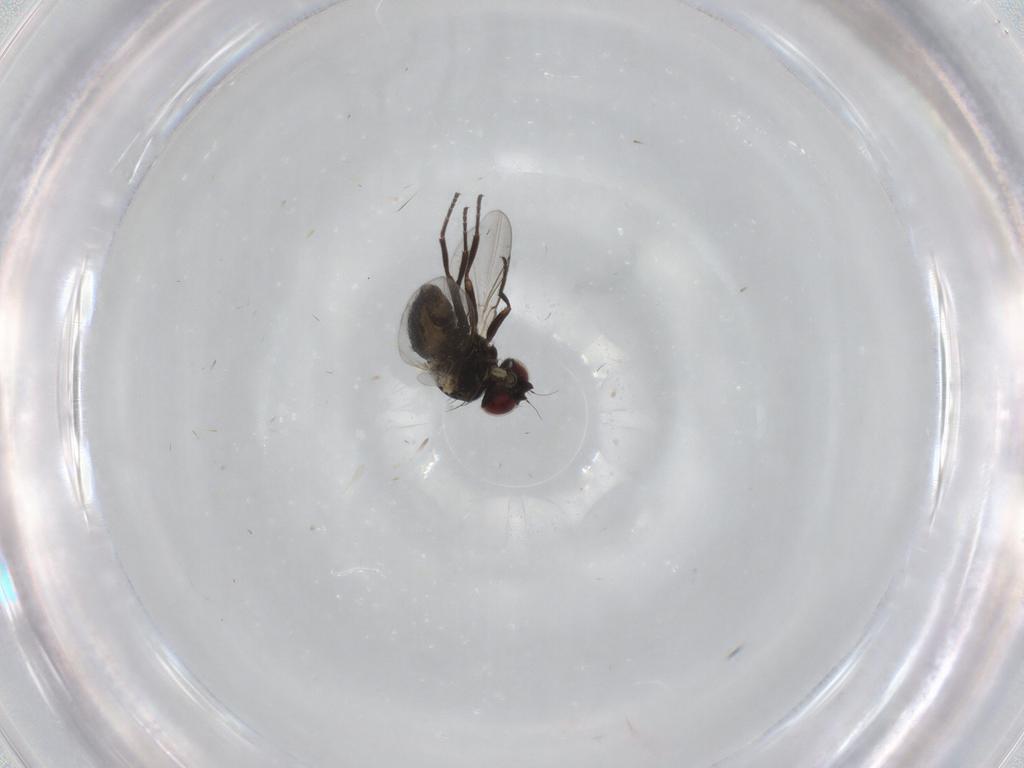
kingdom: Animalia
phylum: Arthropoda
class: Insecta
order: Diptera
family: Agromyzidae
